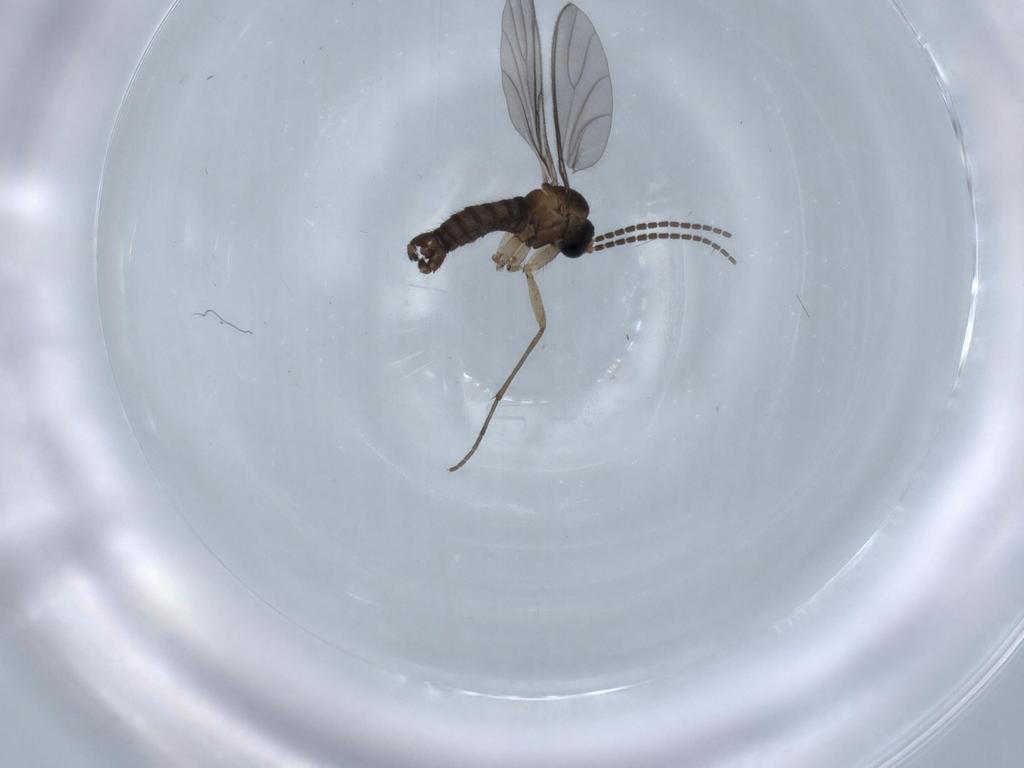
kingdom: Animalia
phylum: Arthropoda
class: Insecta
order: Diptera
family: Sciaridae
